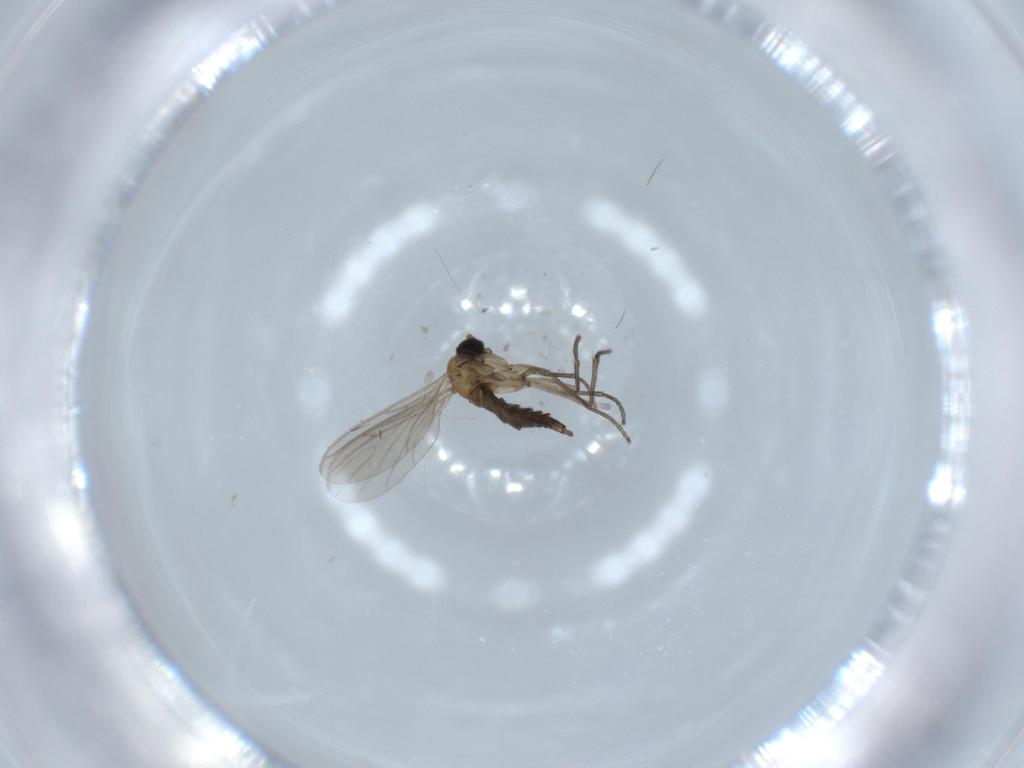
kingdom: Animalia
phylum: Arthropoda
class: Insecta
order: Diptera
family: Sciaridae
